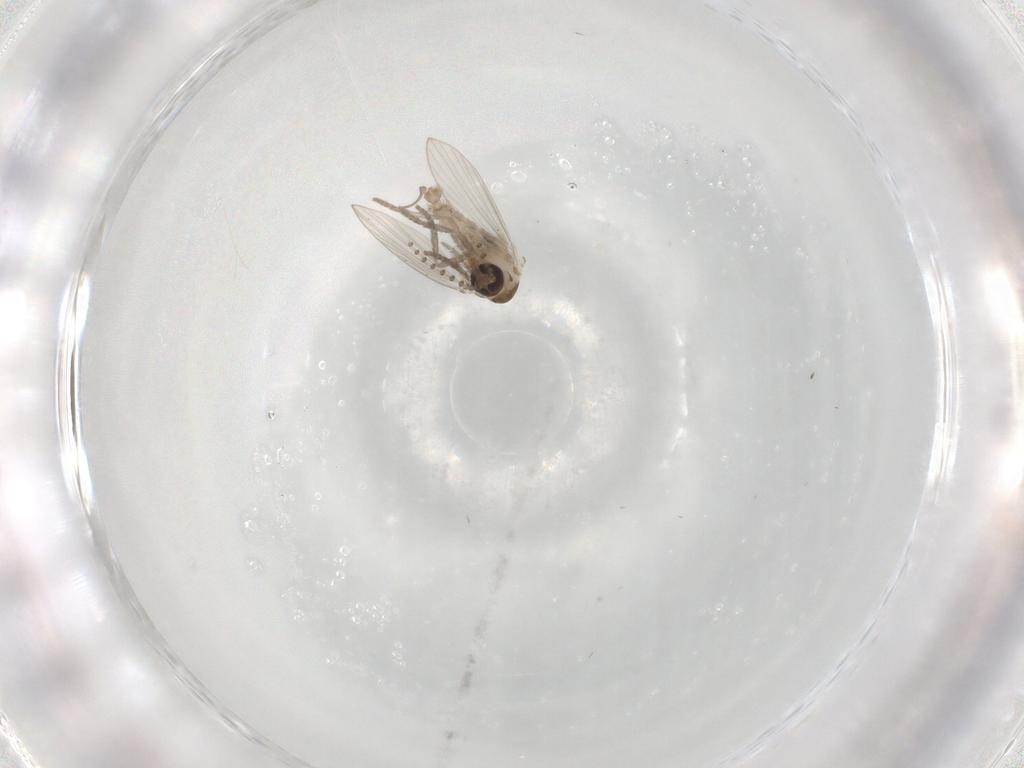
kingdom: Animalia
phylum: Arthropoda
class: Insecta
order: Diptera
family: Psychodidae
